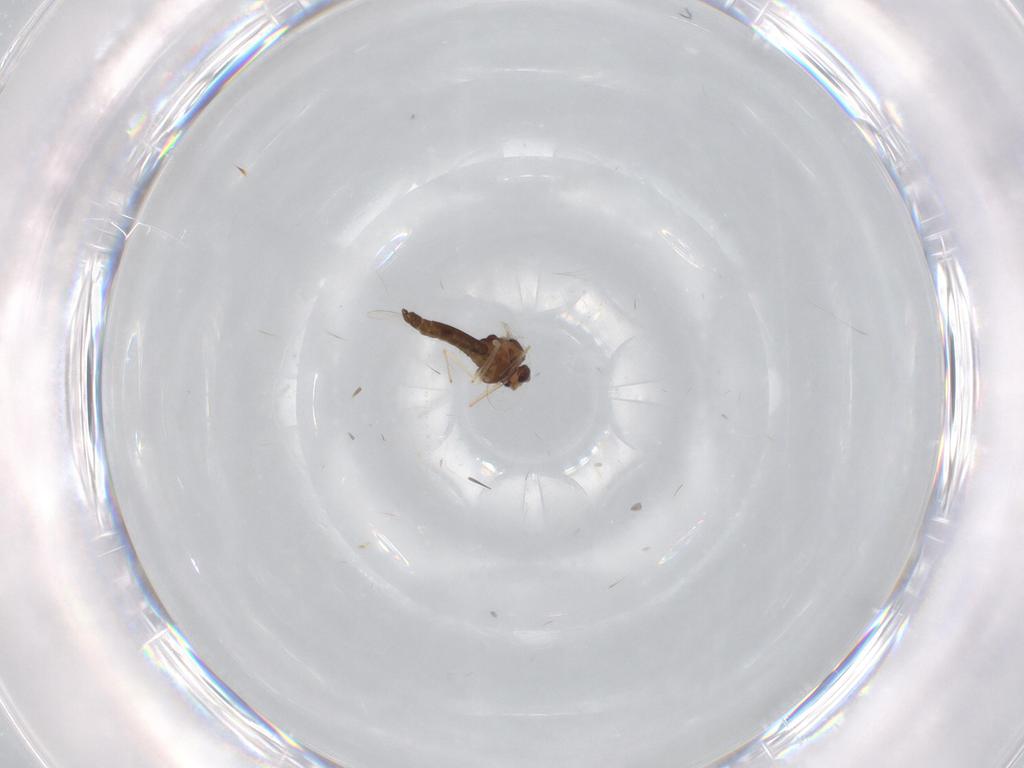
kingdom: Animalia
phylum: Arthropoda
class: Insecta
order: Diptera
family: Chironomidae
